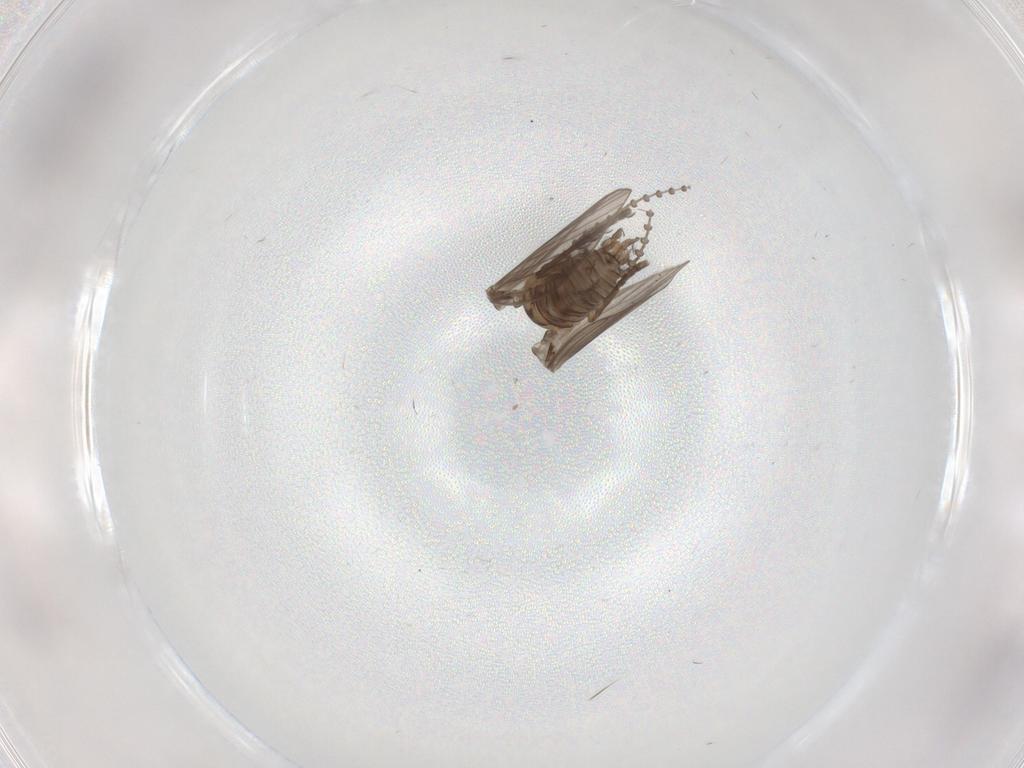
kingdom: Animalia
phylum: Arthropoda
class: Insecta
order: Diptera
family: Psychodidae
